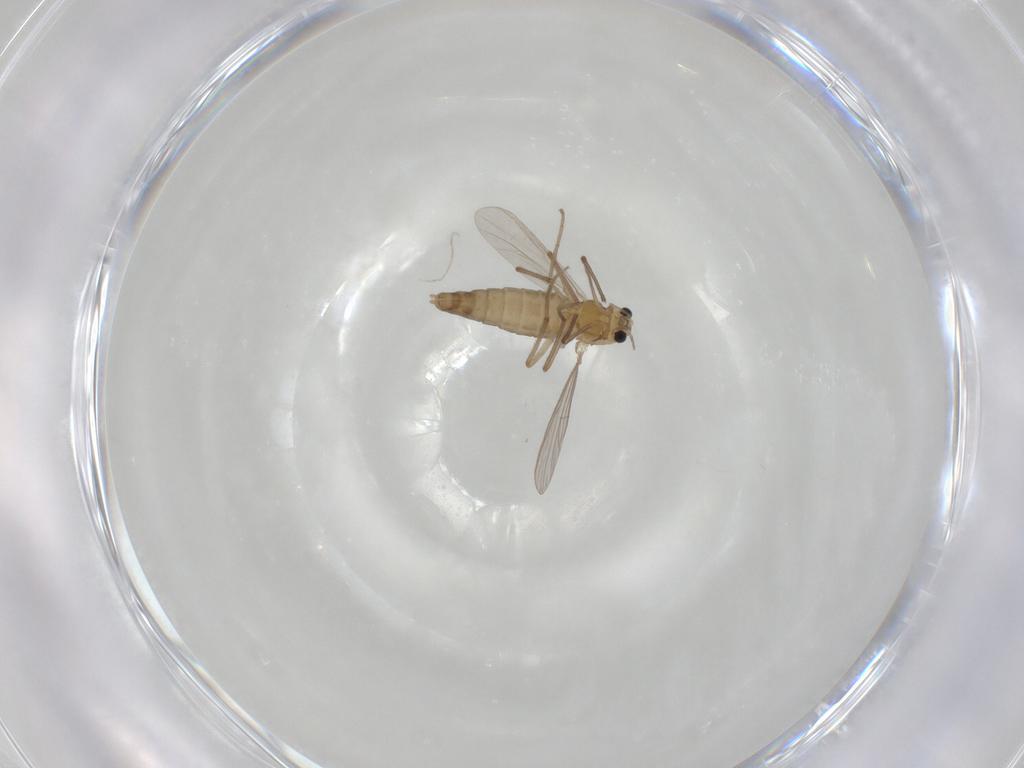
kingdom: Animalia
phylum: Arthropoda
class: Insecta
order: Diptera
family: Chironomidae
